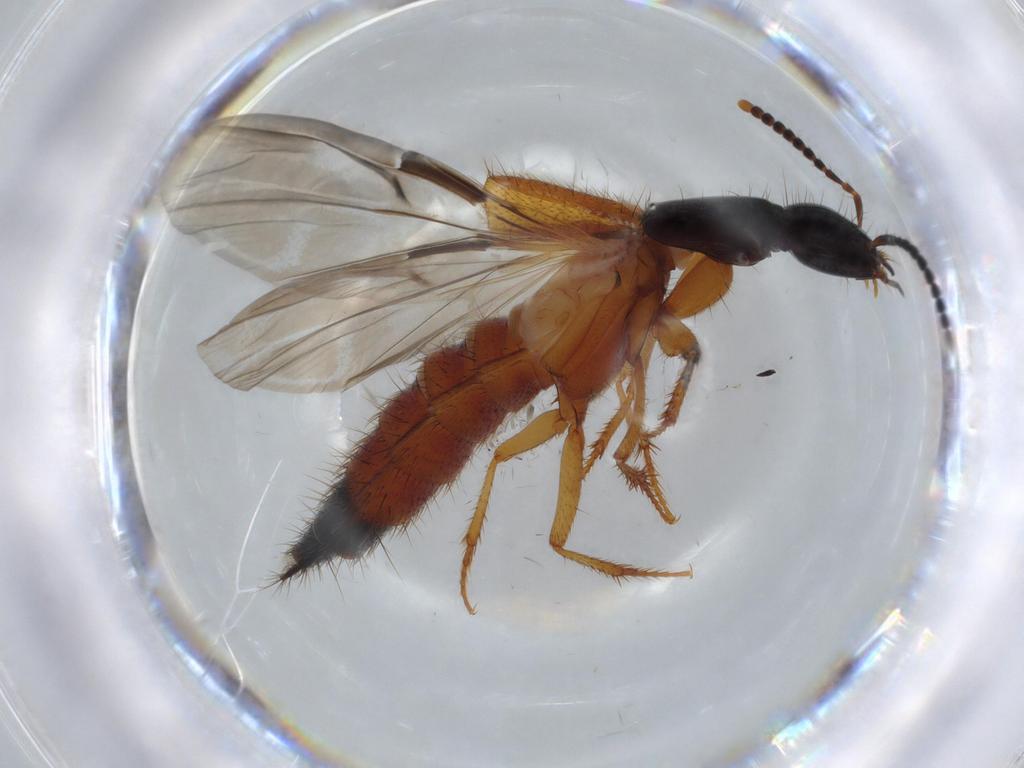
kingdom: Animalia
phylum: Arthropoda
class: Insecta
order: Coleoptera
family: Staphylinidae
